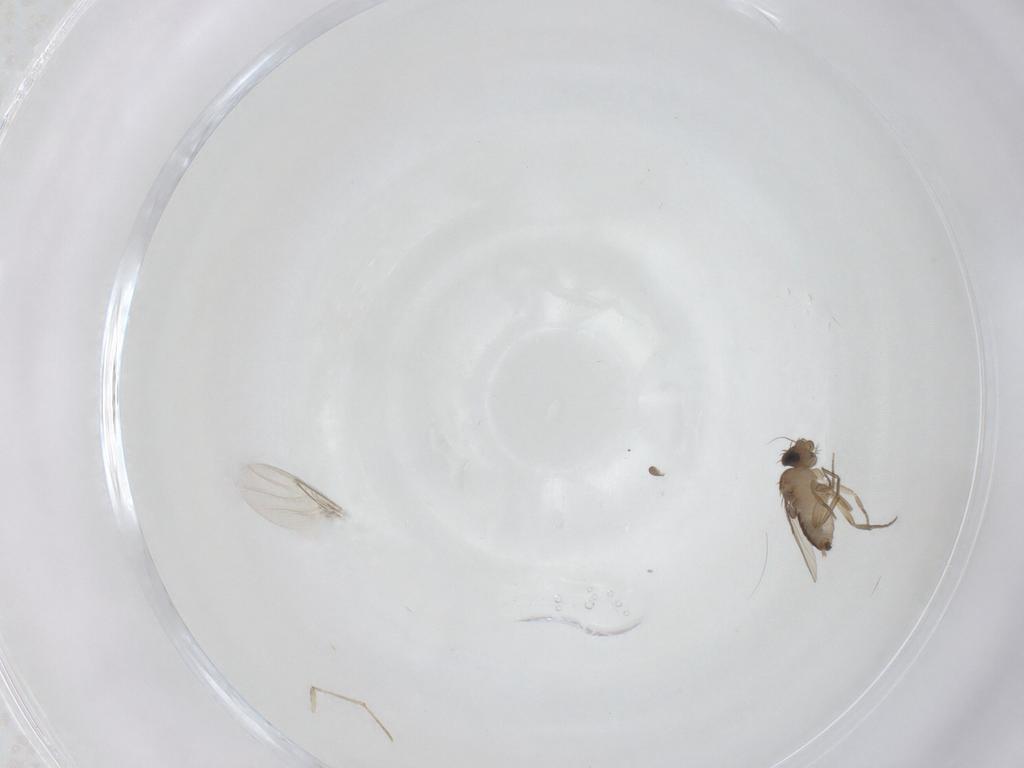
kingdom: Animalia
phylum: Arthropoda
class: Insecta
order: Diptera
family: Phoridae
